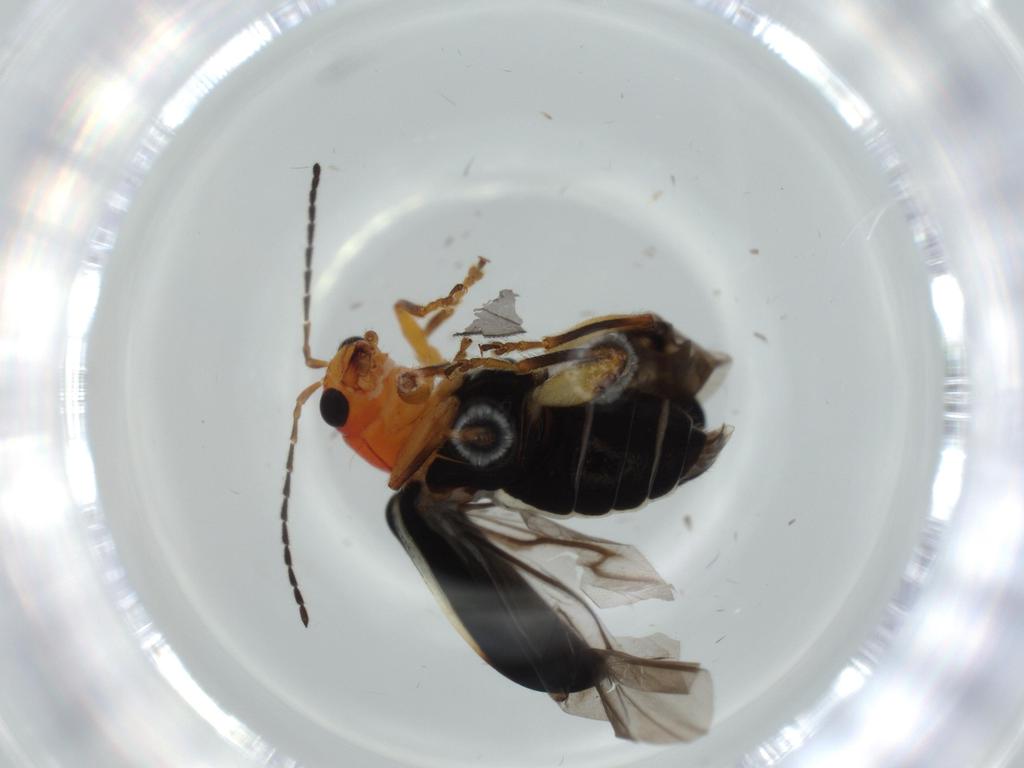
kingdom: Animalia
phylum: Arthropoda
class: Insecta
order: Coleoptera
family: Chrysomelidae
